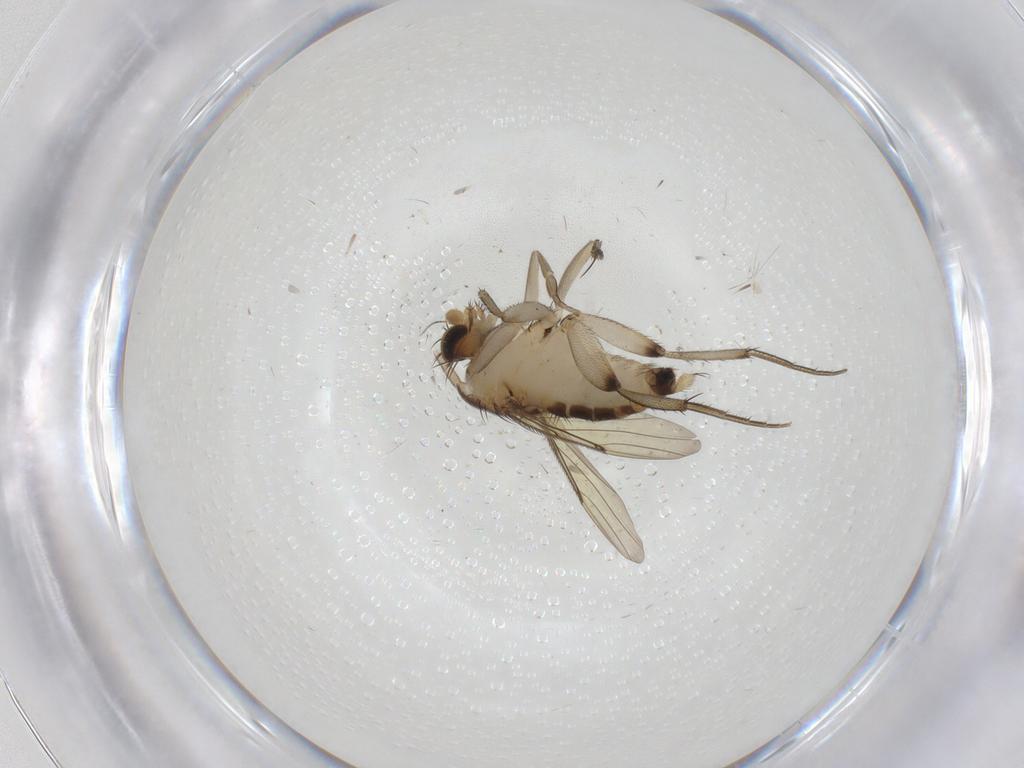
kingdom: Animalia
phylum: Arthropoda
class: Insecta
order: Diptera
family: Phoridae
